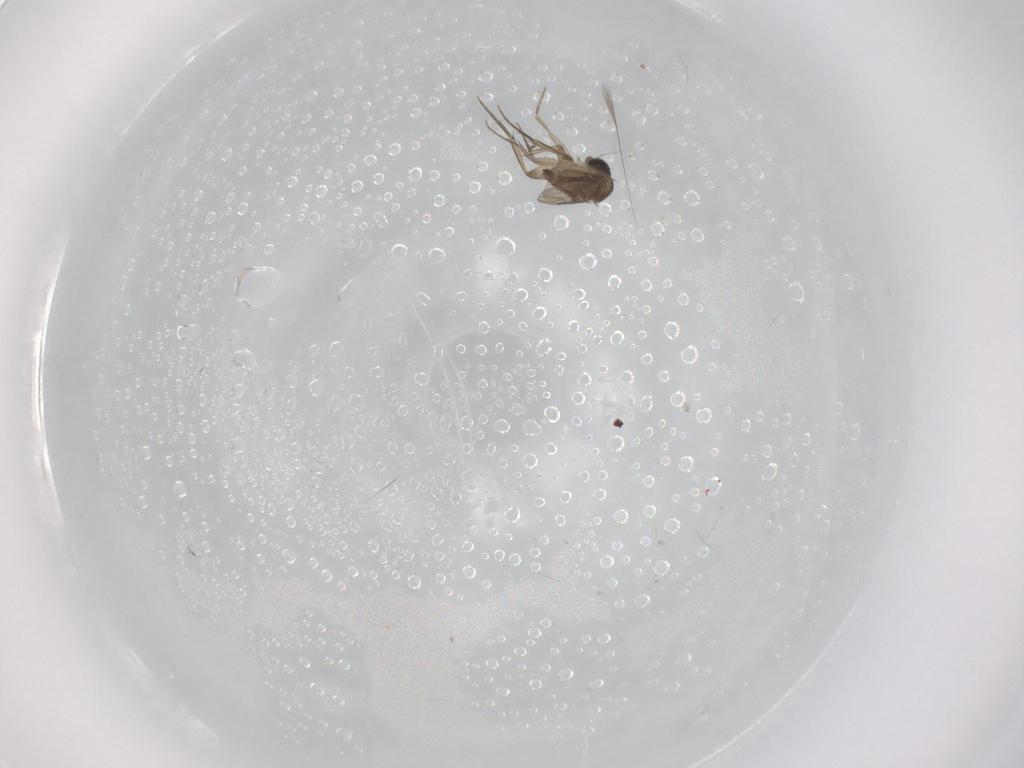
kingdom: Animalia
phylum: Arthropoda
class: Insecta
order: Diptera
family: Phoridae
